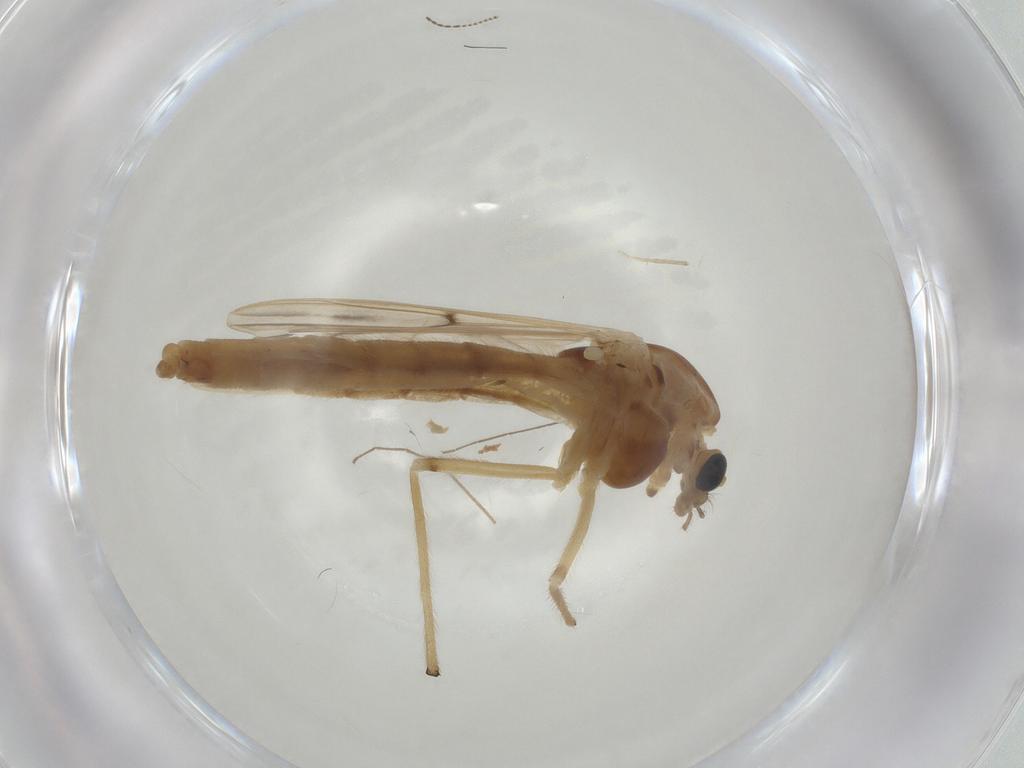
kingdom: Animalia
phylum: Arthropoda
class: Insecta
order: Diptera
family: Chironomidae
